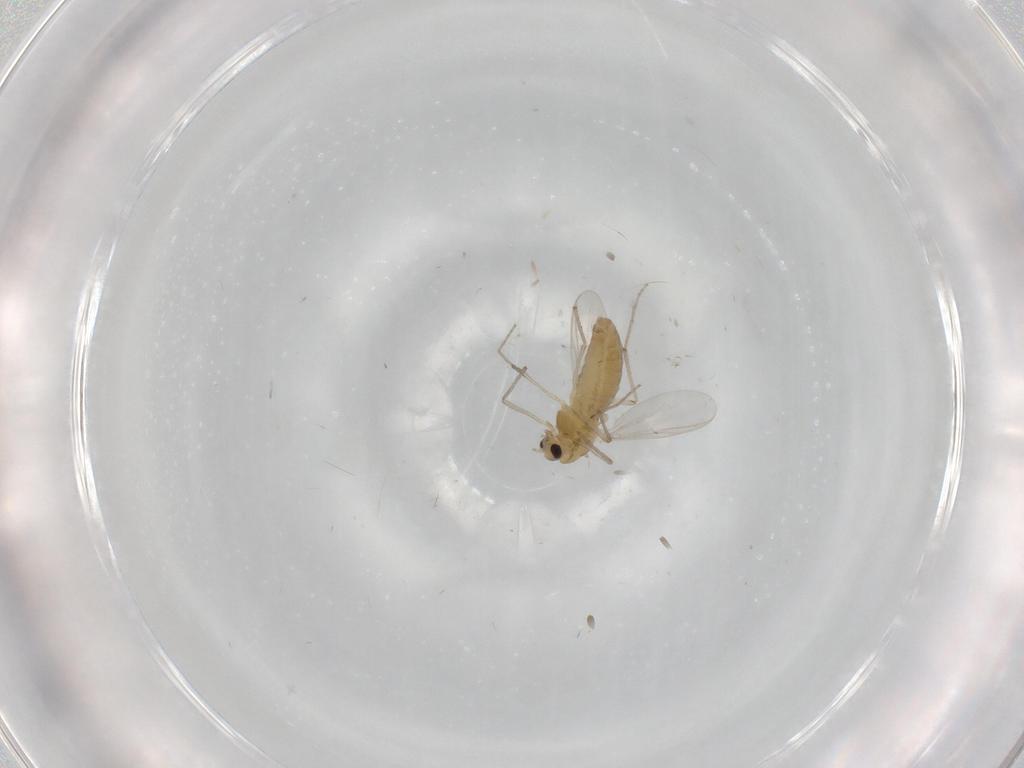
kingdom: Animalia
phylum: Arthropoda
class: Insecta
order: Diptera
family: Chironomidae
